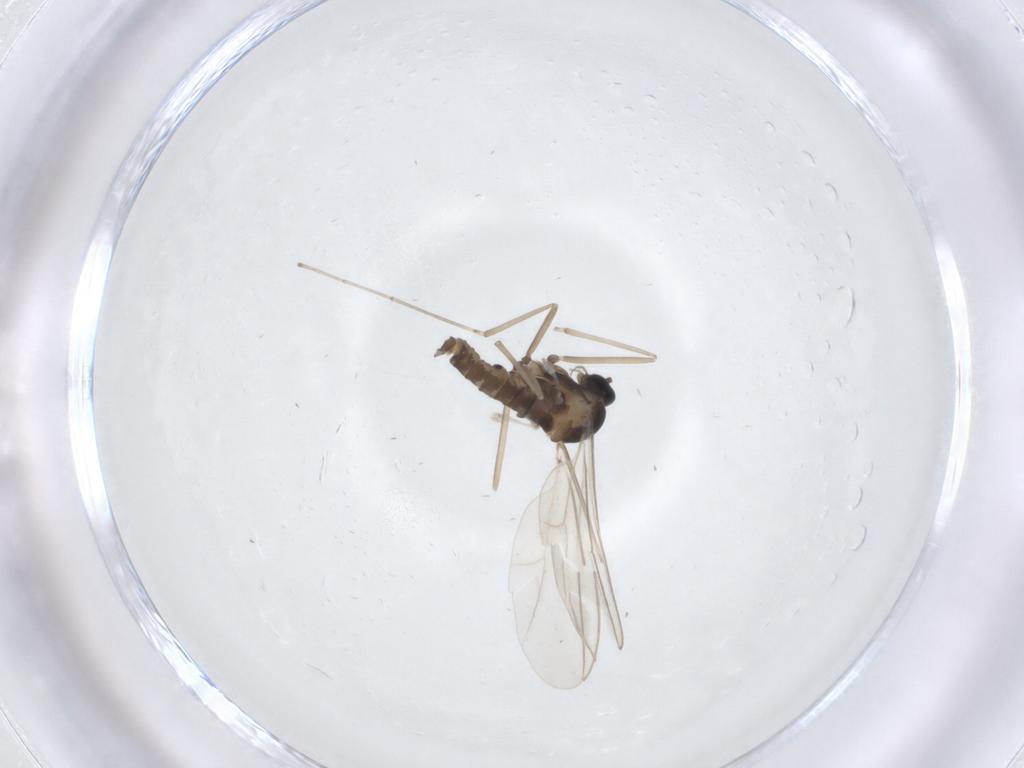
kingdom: Animalia
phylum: Arthropoda
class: Insecta
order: Diptera
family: Cecidomyiidae
